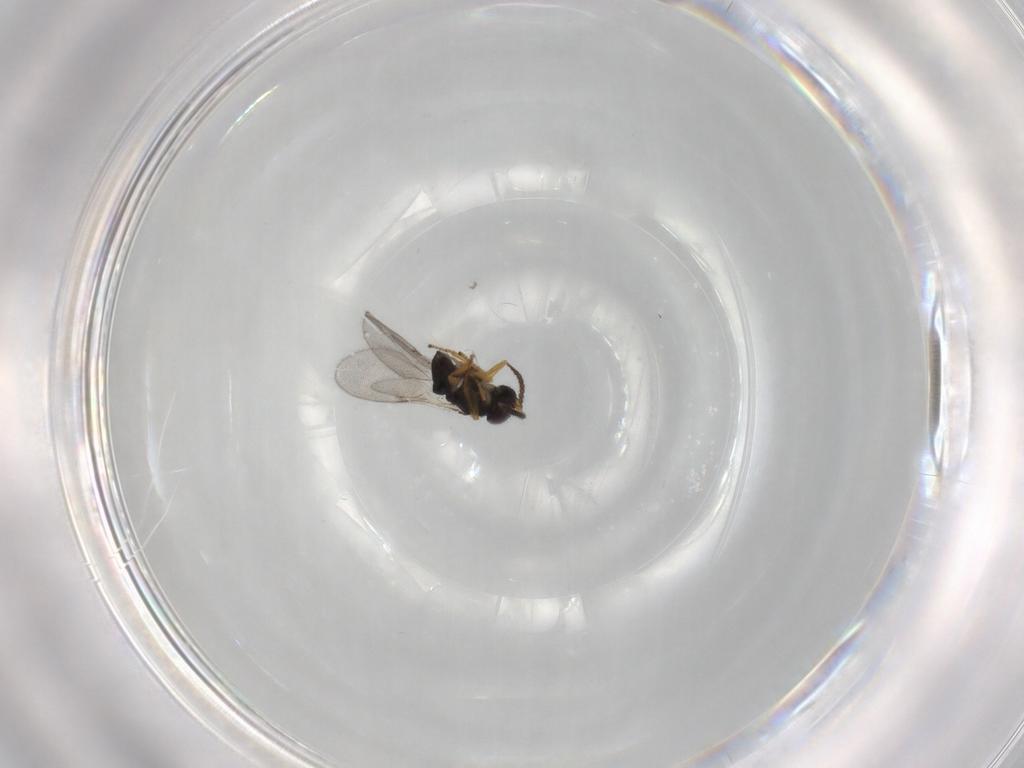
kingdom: Animalia
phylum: Arthropoda
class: Insecta
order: Hymenoptera
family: Encyrtidae
